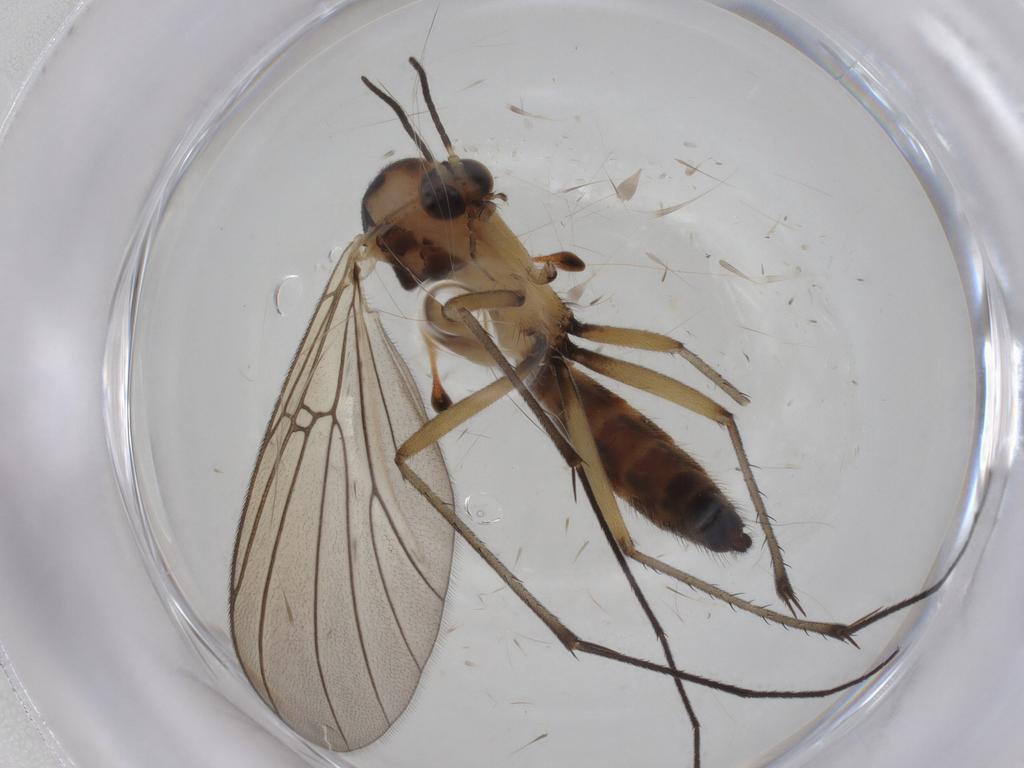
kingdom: Animalia
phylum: Arthropoda
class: Insecta
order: Diptera
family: Mycetophilidae
